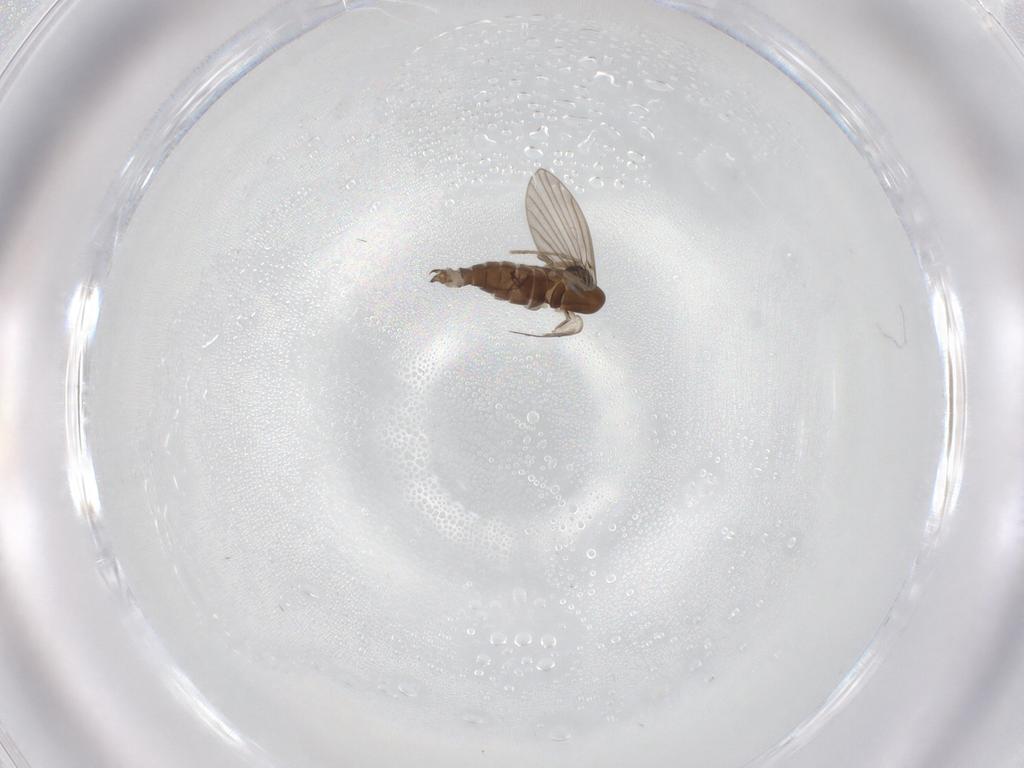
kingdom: Animalia
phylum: Arthropoda
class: Insecta
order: Diptera
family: Phoridae
